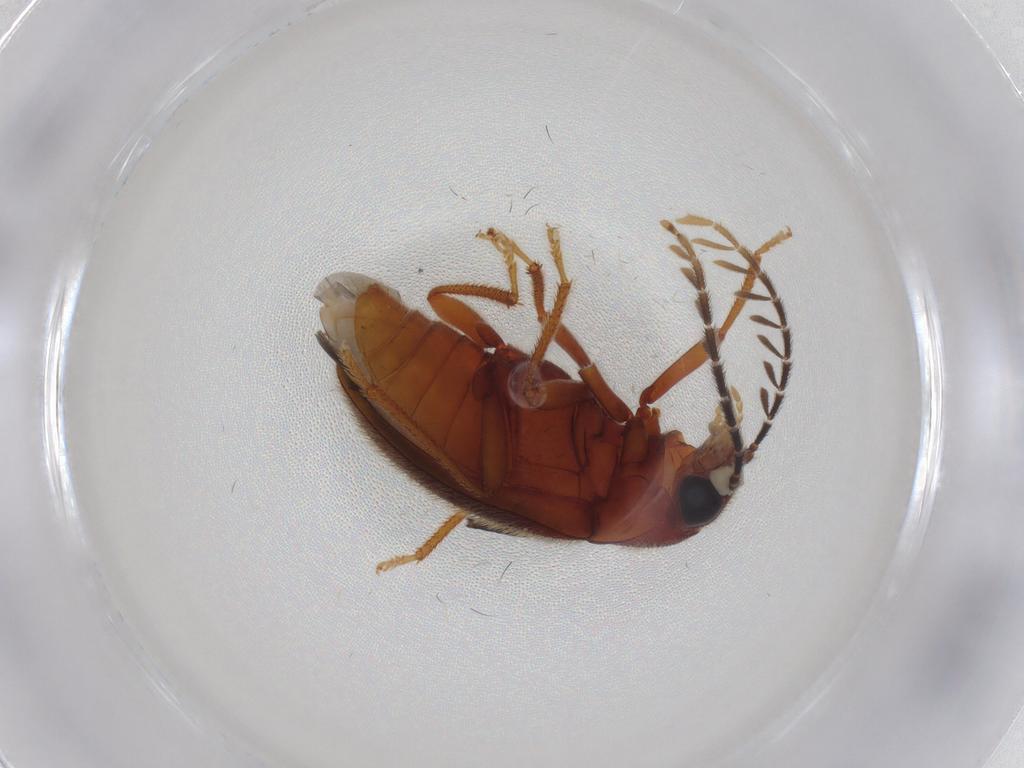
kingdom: Animalia
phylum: Arthropoda
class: Insecta
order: Coleoptera
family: Ptilodactylidae
